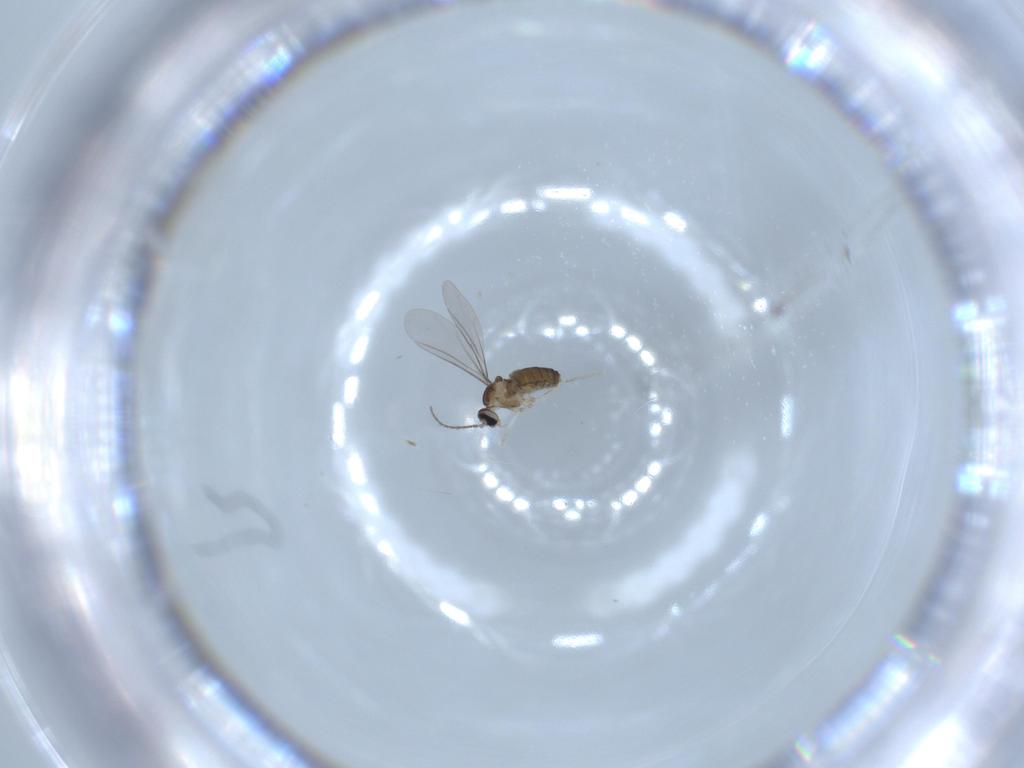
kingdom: Animalia
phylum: Arthropoda
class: Insecta
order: Diptera
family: Cecidomyiidae
